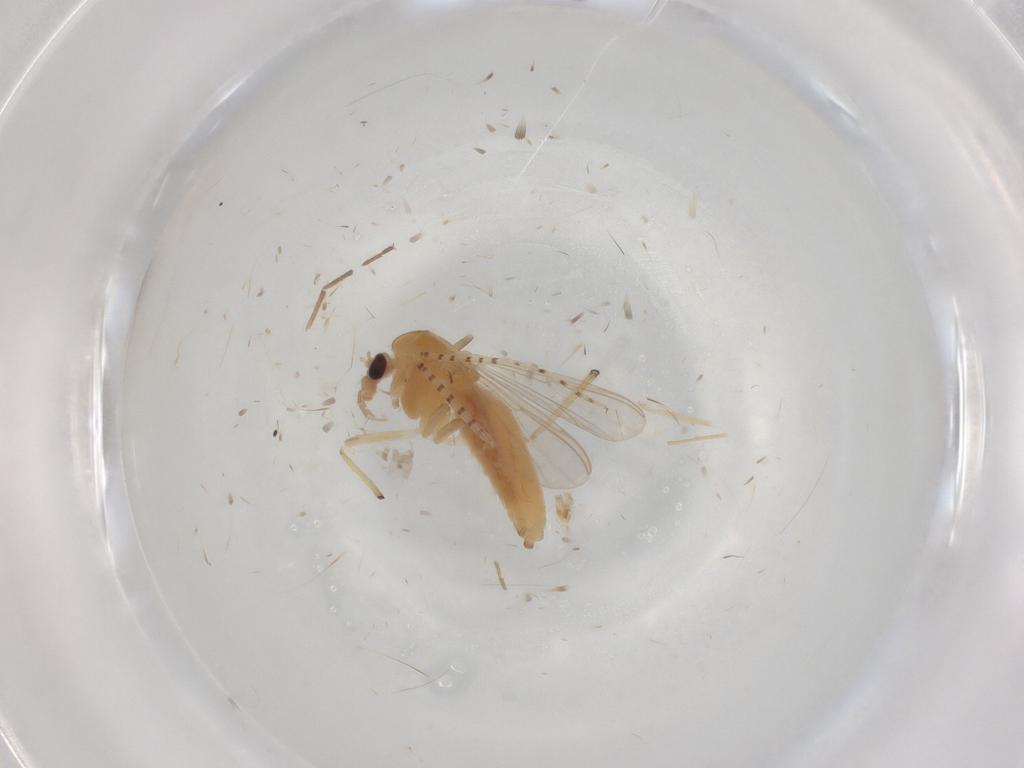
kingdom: Animalia
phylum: Arthropoda
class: Insecta
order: Diptera
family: Chironomidae
